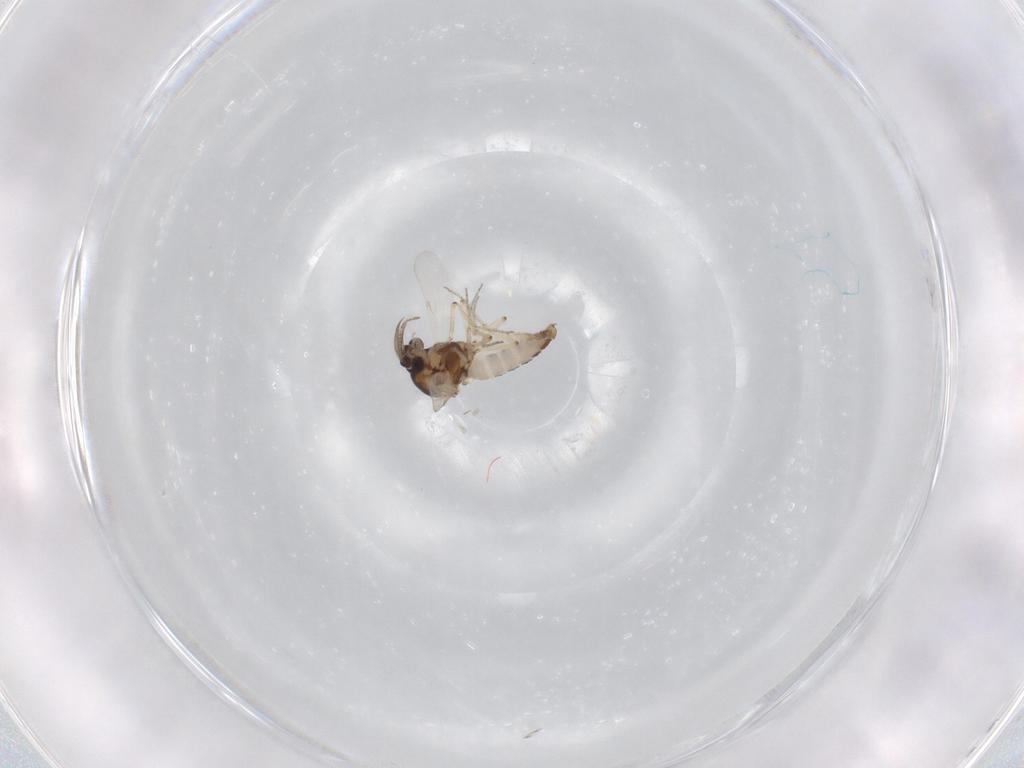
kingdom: Animalia
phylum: Arthropoda
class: Insecta
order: Diptera
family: Ceratopogonidae
